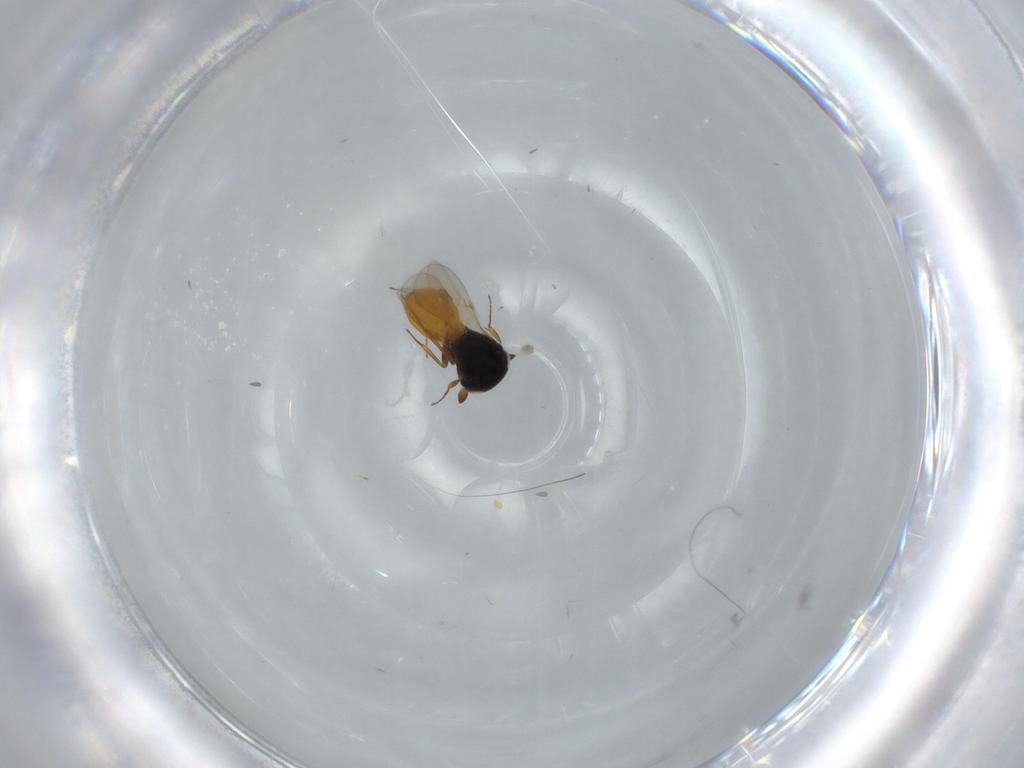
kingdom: Animalia
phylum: Arthropoda
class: Insecta
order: Hymenoptera
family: Scelionidae
